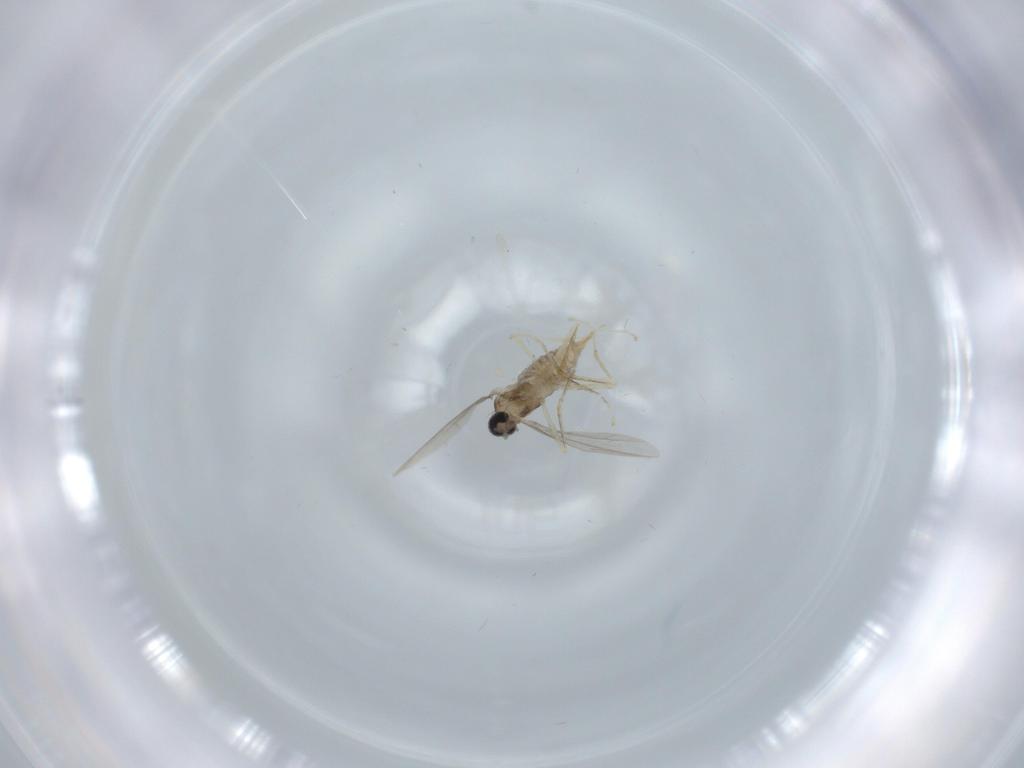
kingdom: Animalia
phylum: Arthropoda
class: Insecta
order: Diptera
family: Cecidomyiidae
